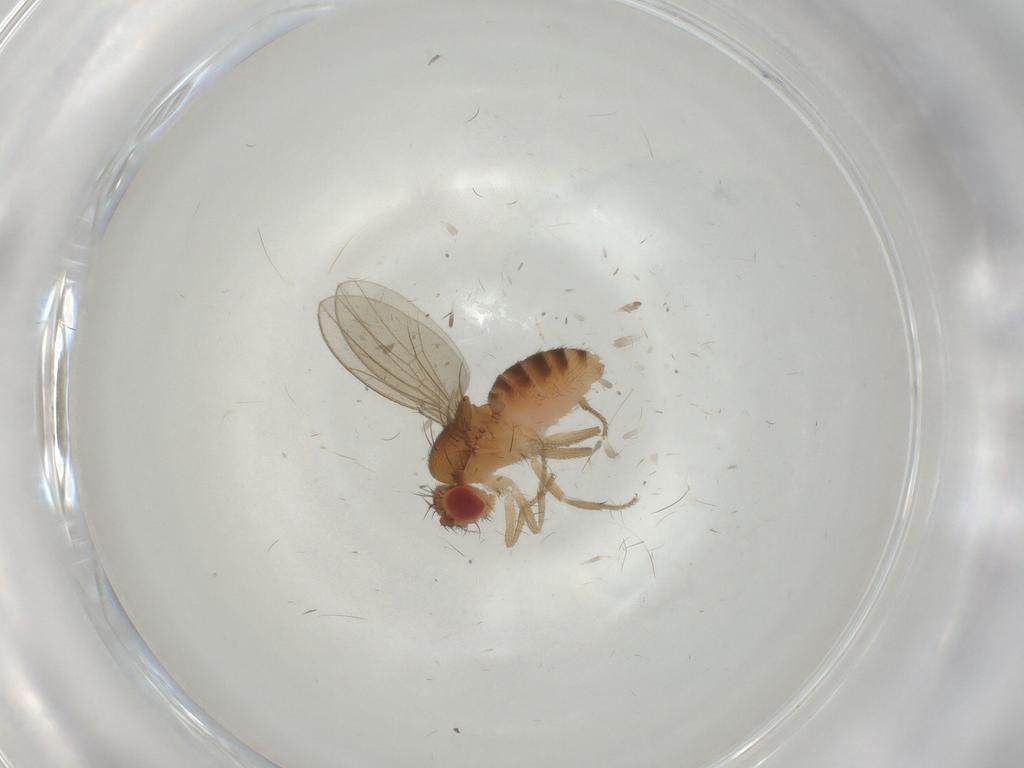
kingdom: Animalia
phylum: Arthropoda
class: Insecta
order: Diptera
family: Drosophilidae
